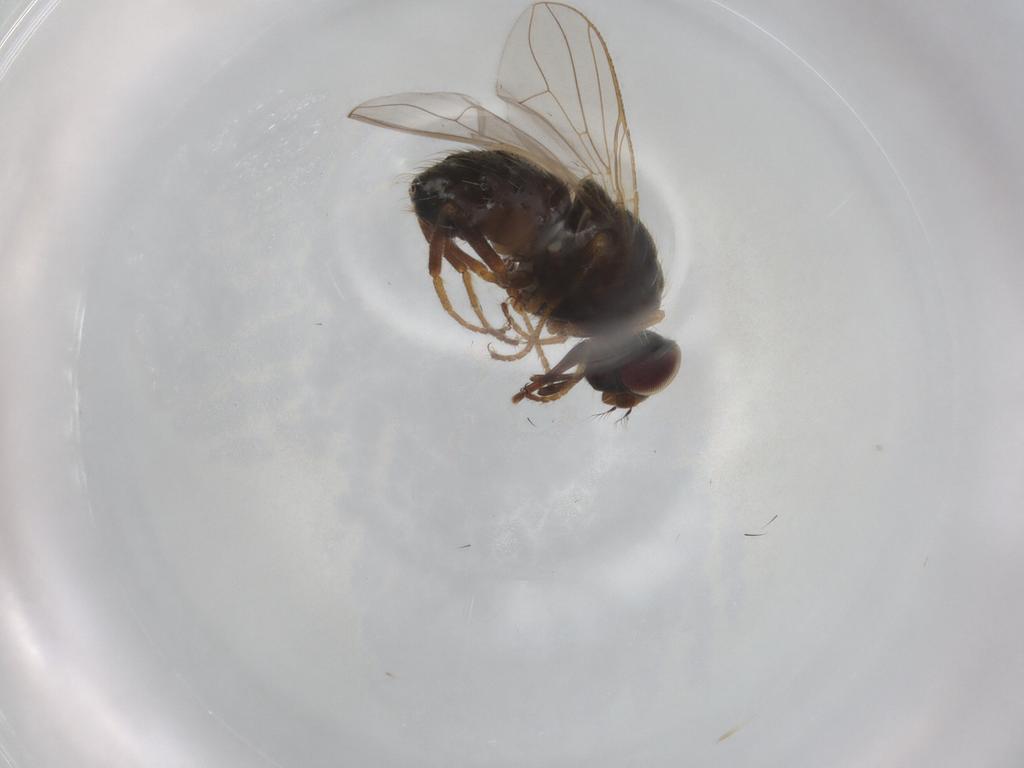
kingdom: Animalia
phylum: Arthropoda
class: Insecta
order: Diptera
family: Muscidae
